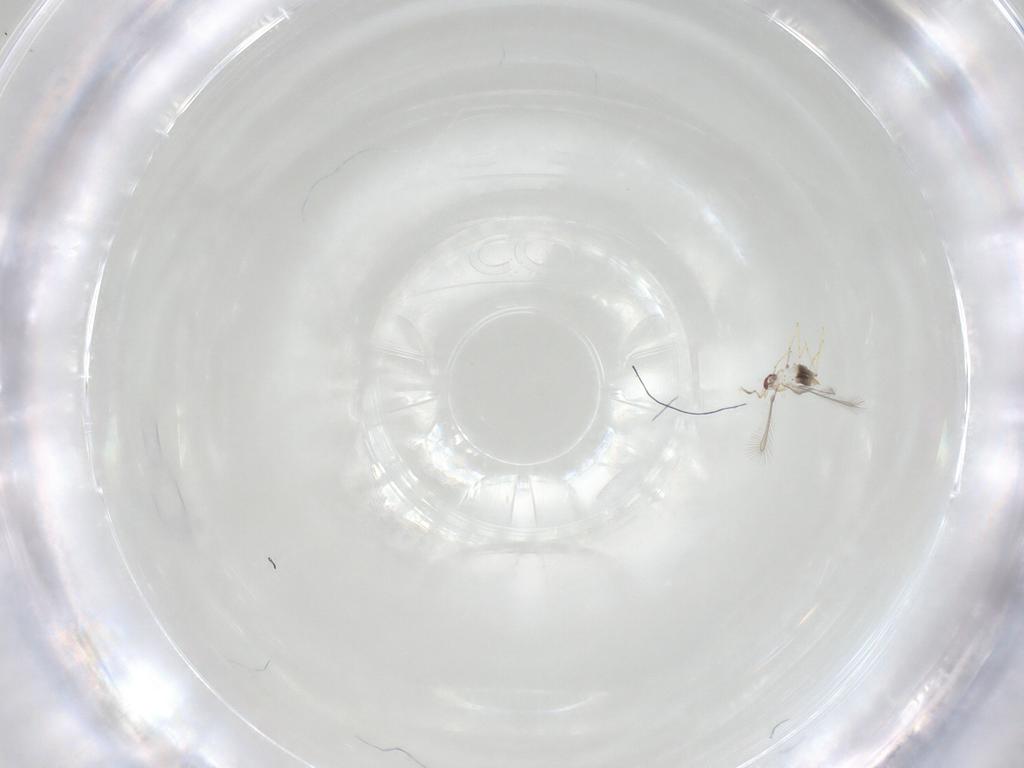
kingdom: Animalia
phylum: Arthropoda
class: Insecta
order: Hymenoptera
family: Mymaridae
